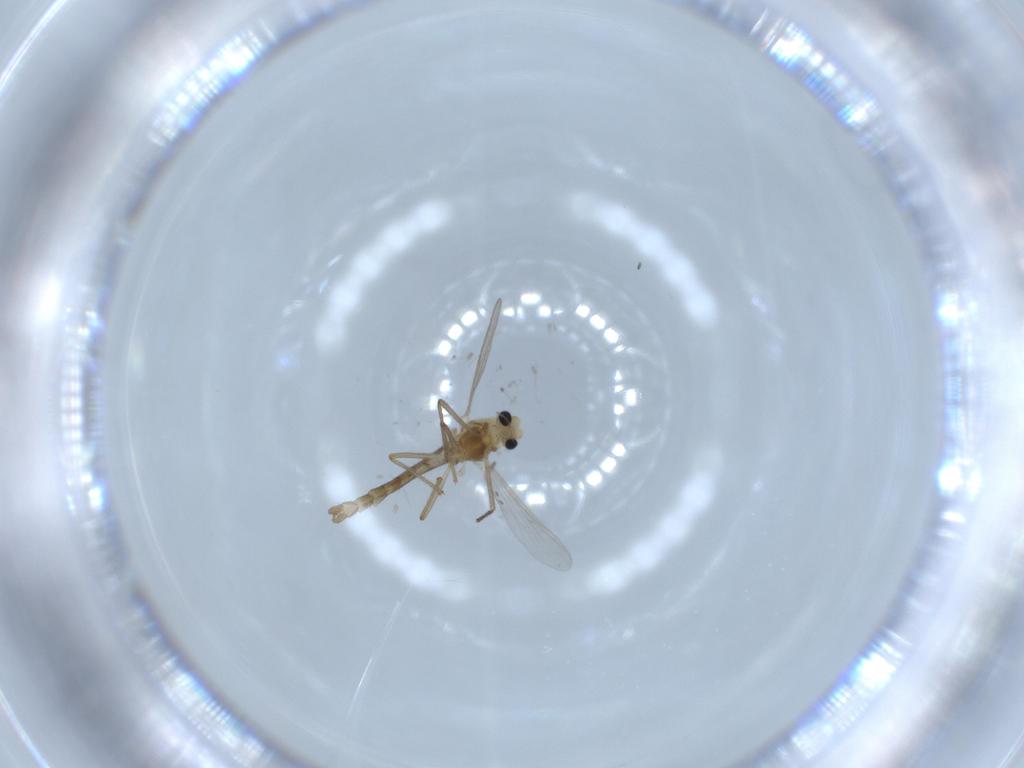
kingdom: Animalia
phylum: Arthropoda
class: Insecta
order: Diptera
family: Chironomidae
